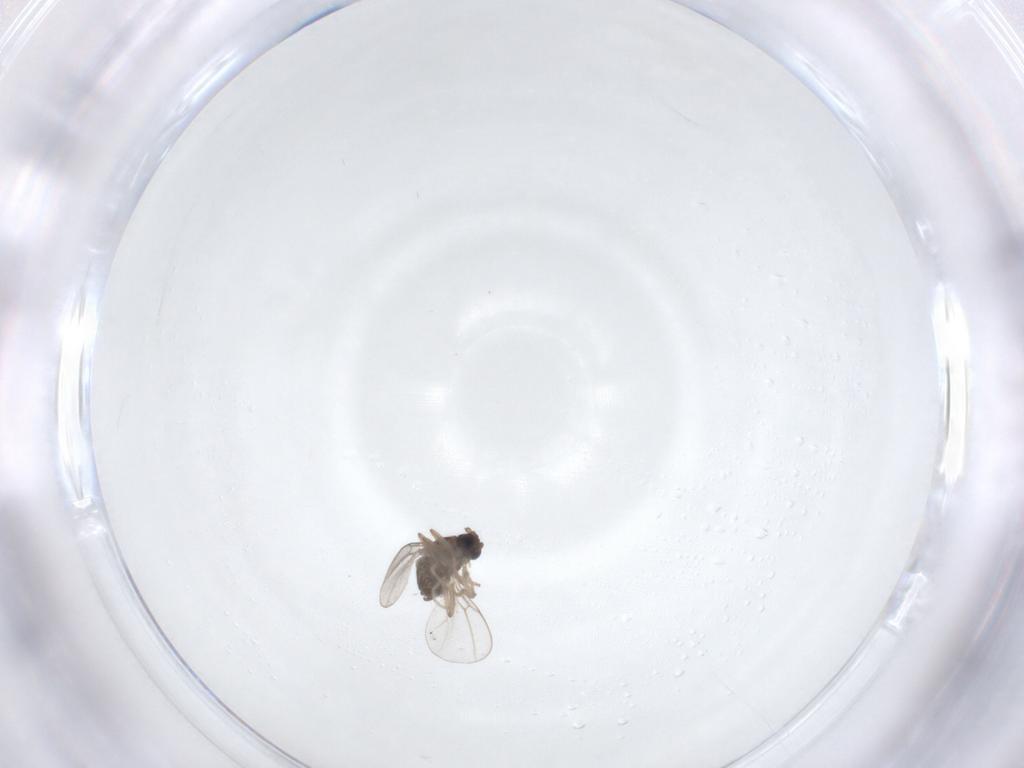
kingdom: Animalia
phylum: Arthropoda
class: Insecta
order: Diptera
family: Cecidomyiidae
